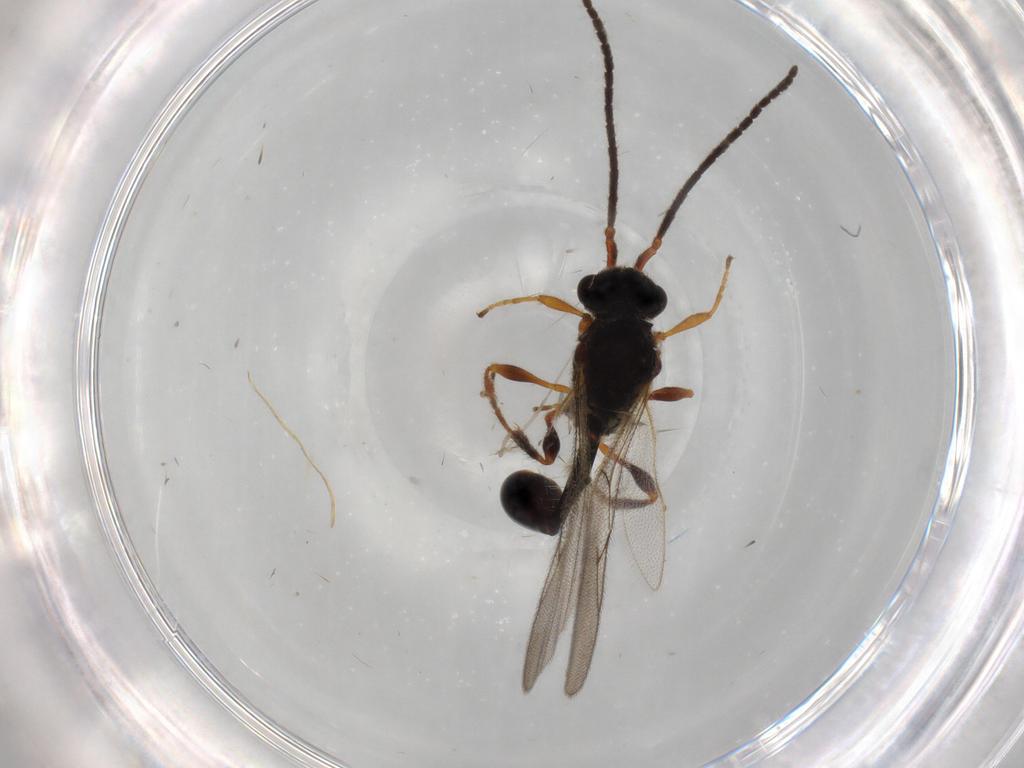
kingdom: Animalia
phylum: Arthropoda
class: Insecta
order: Hymenoptera
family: Diapriidae
